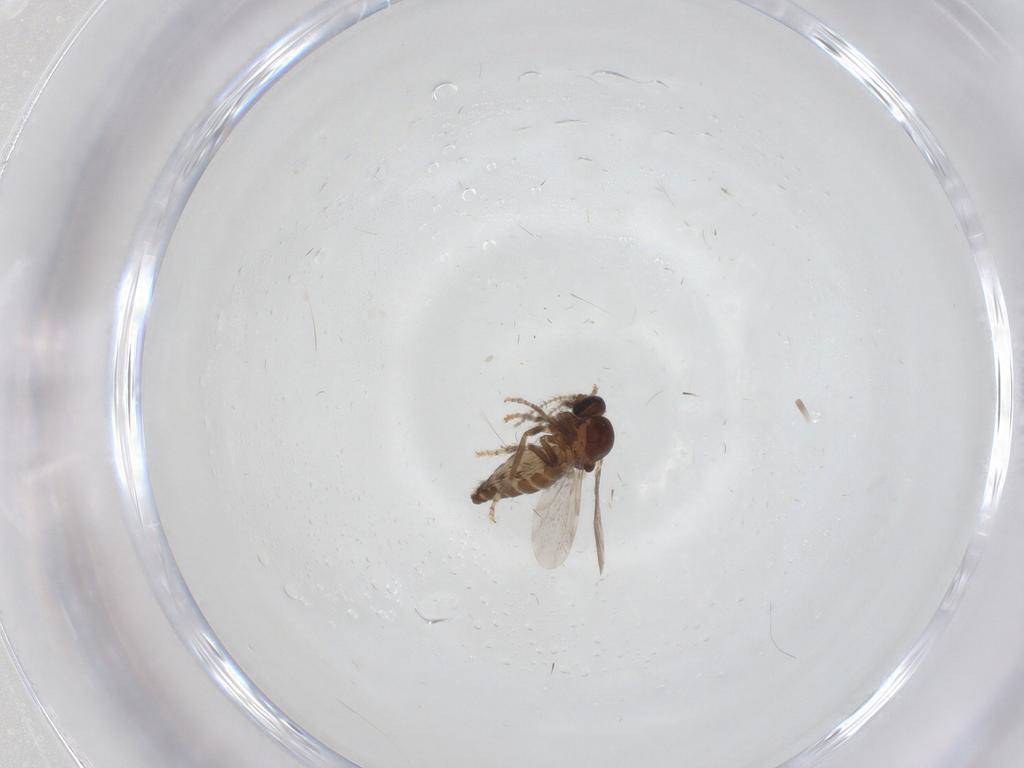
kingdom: Animalia
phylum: Arthropoda
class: Insecta
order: Diptera
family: Ceratopogonidae
